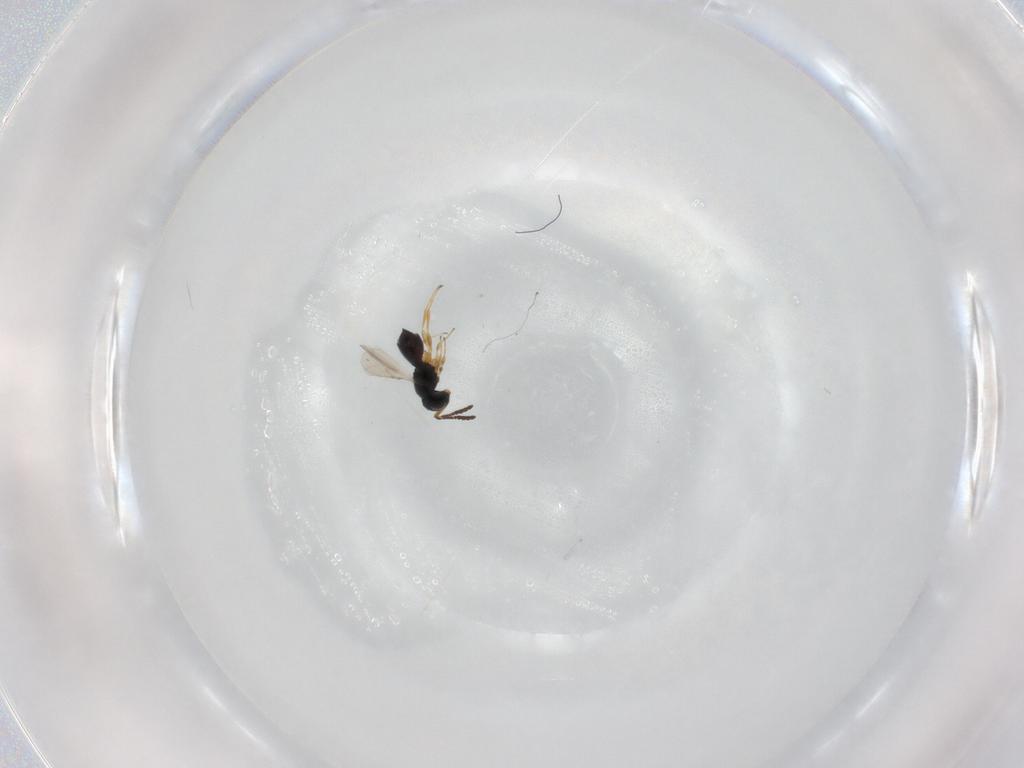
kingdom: Animalia
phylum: Arthropoda
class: Insecta
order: Hymenoptera
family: Scelionidae
